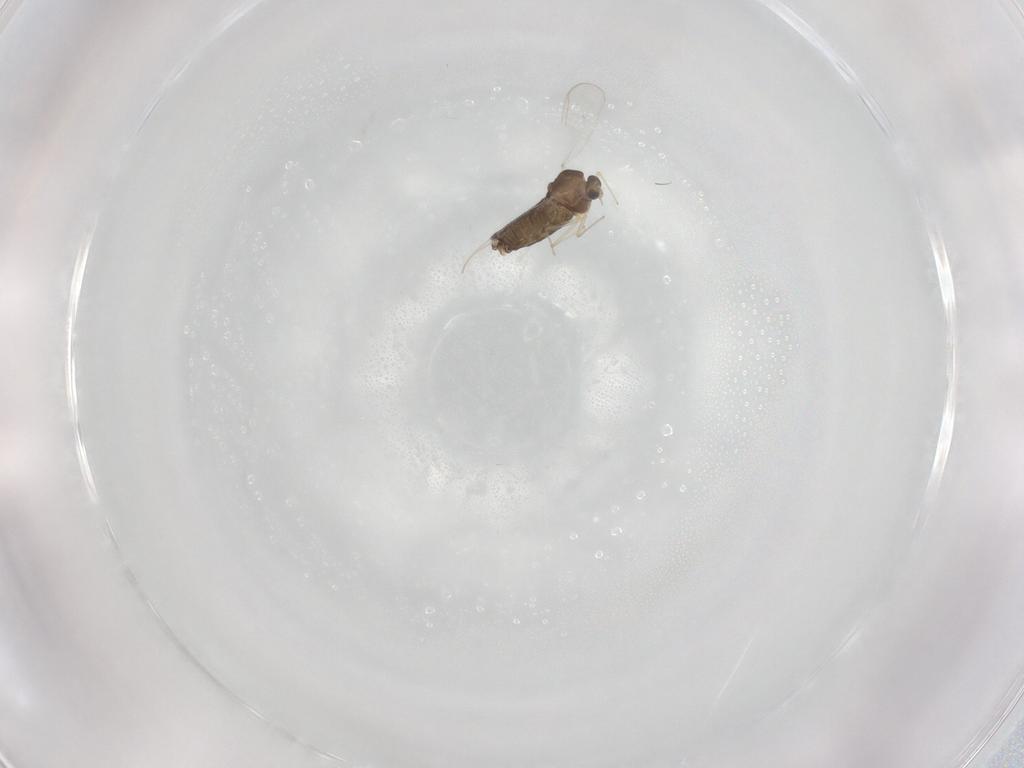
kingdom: Animalia
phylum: Arthropoda
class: Insecta
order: Diptera
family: Chironomidae
